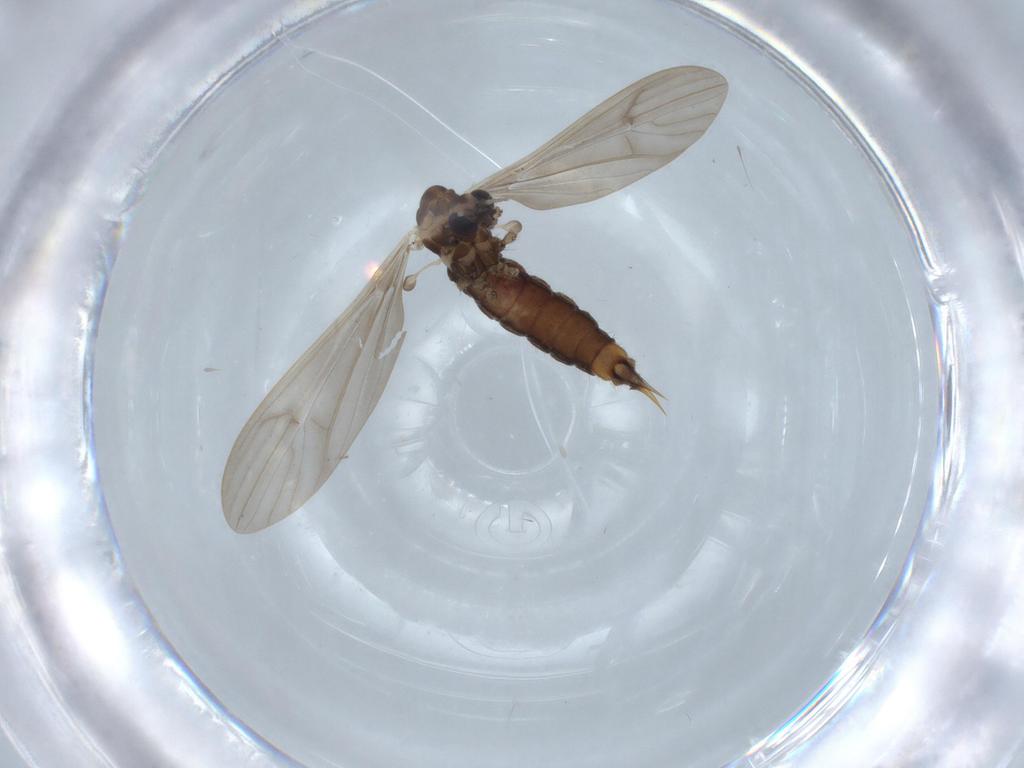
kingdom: Animalia
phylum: Arthropoda
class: Insecta
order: Diptera
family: Limoniidae
